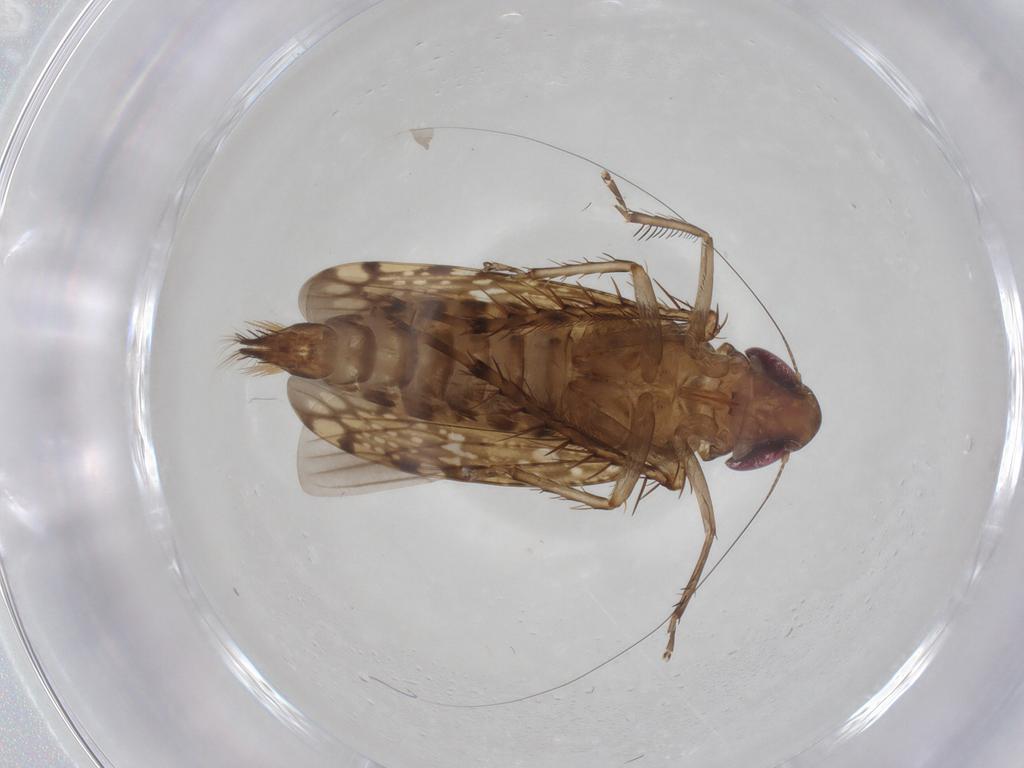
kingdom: Animalia
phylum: Arthropoda
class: Insecta
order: Hemiptera
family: Cicadellidae
